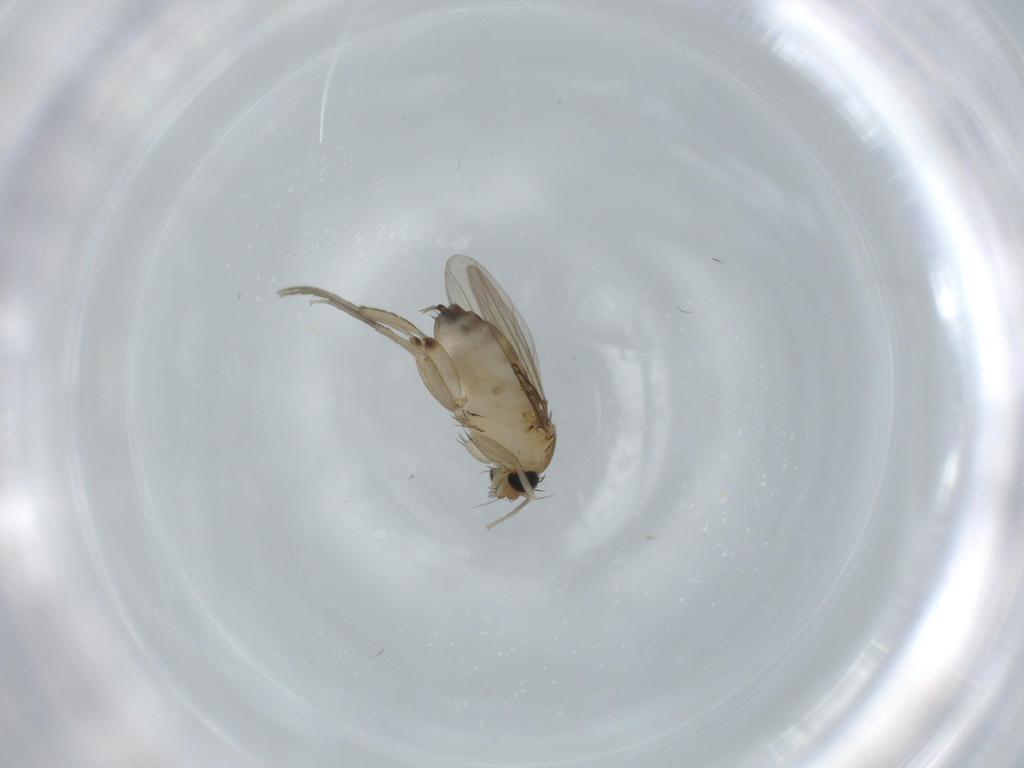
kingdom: Animalia
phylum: Arthropoda
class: Insecta
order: Diptera
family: Phoridae
